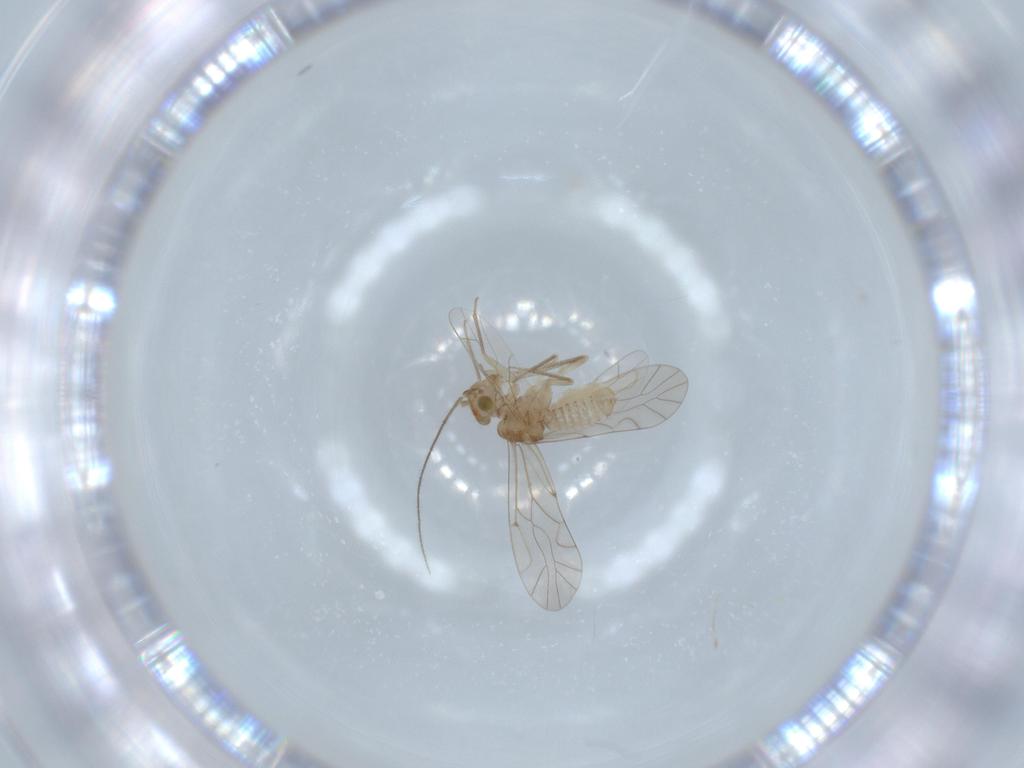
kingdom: Animalia
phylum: Arthropoda
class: Insecta
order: Psocodea
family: Lachesillidae
